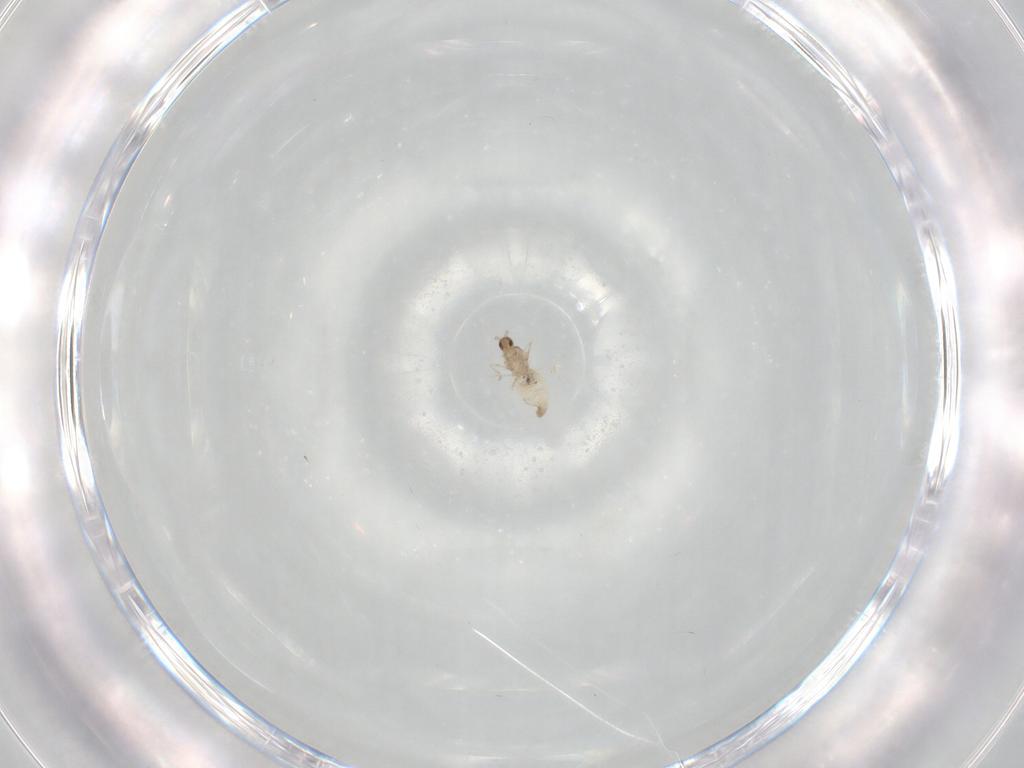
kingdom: Animalia
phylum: Arthropoda
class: Insecta
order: Diptera
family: Cecidomyiidae
